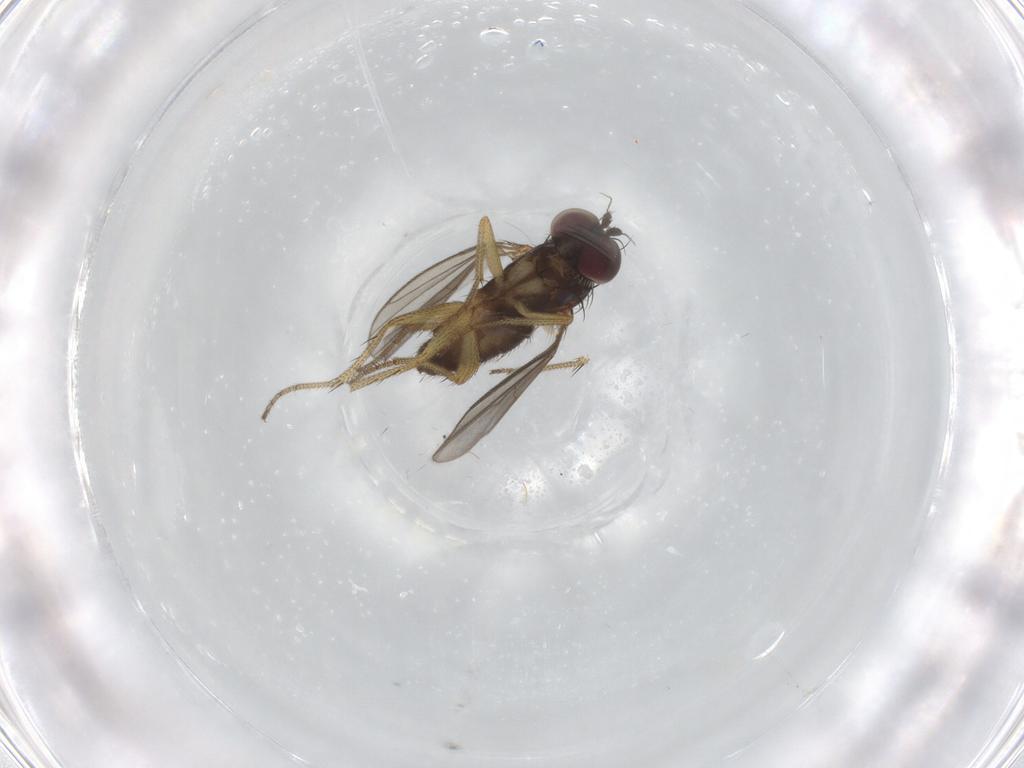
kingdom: Animalia
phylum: Arthropoda
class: Insecta
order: Diptera
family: Dolichopodidae
